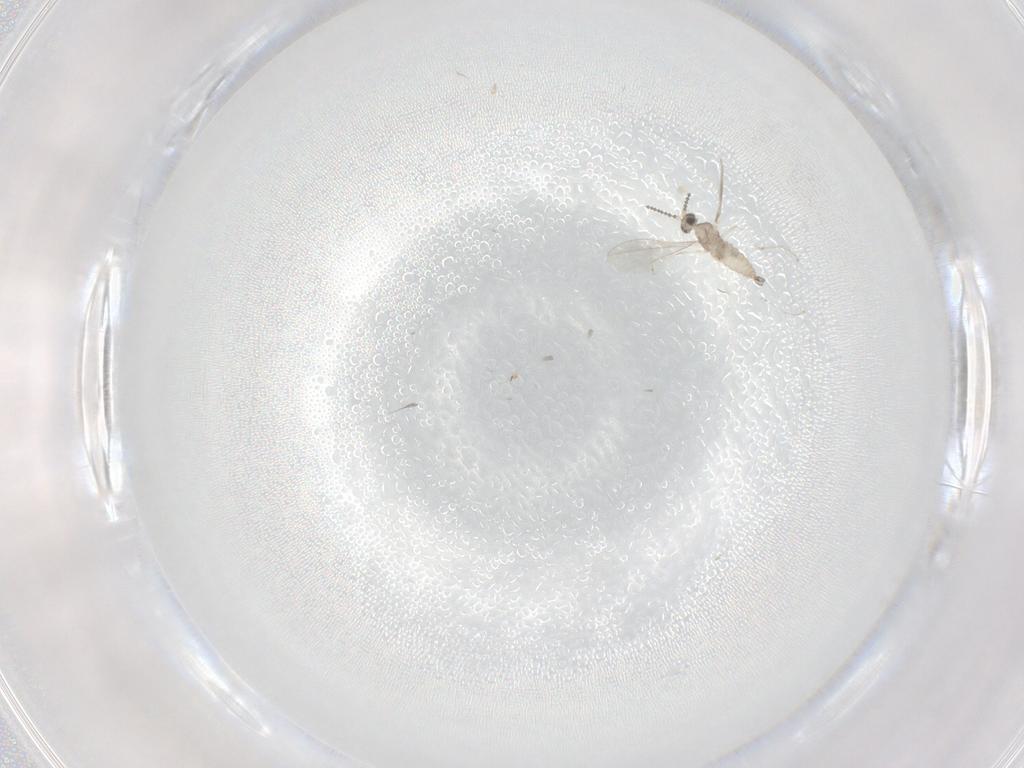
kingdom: Animalia
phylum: Arthropoda
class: Insecta
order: Diptera
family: Cecidomyiidae
